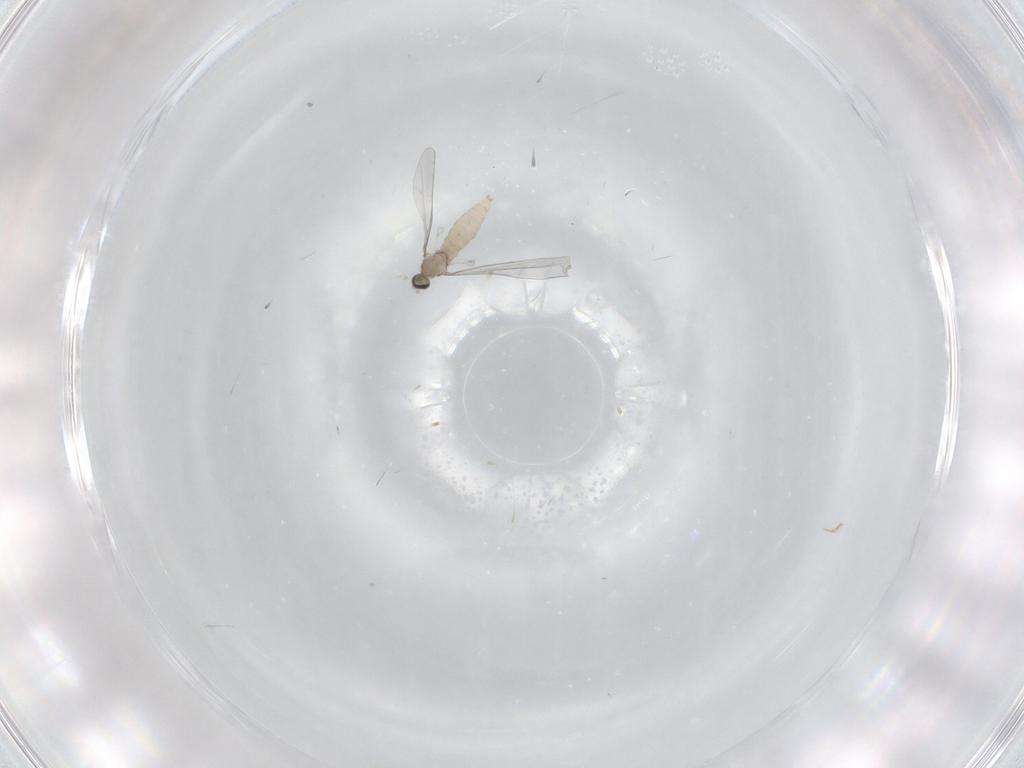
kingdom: Animalia
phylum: Arthropoda
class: Insecta
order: Diptera
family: Cecidomyiidae
